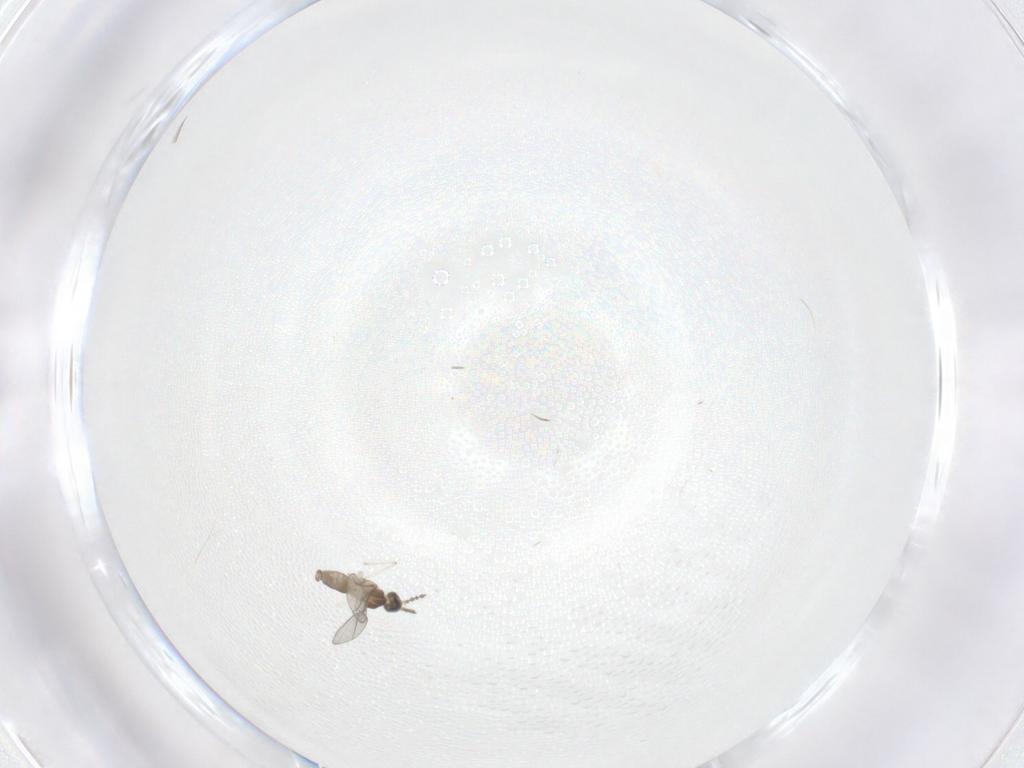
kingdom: Animalia
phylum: Arthropoda
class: Insecta
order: Diptera
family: Cecidomyiidae
